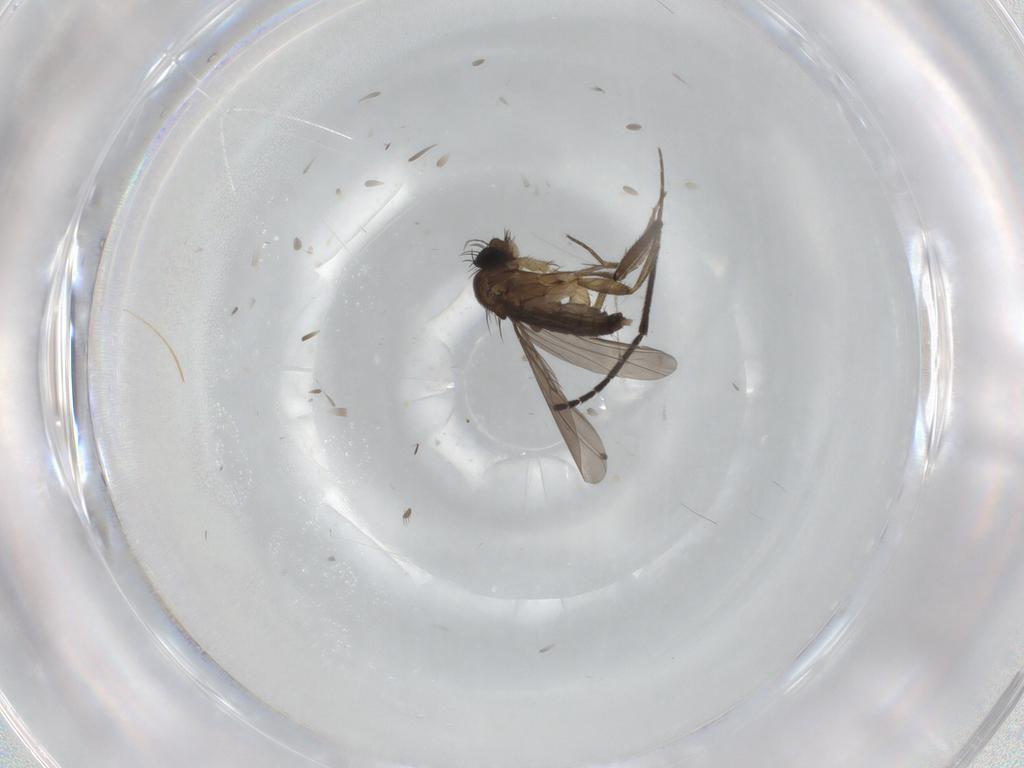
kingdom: Animalia
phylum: Arthropoda
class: Insecta
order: Diptera
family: Phoridae
